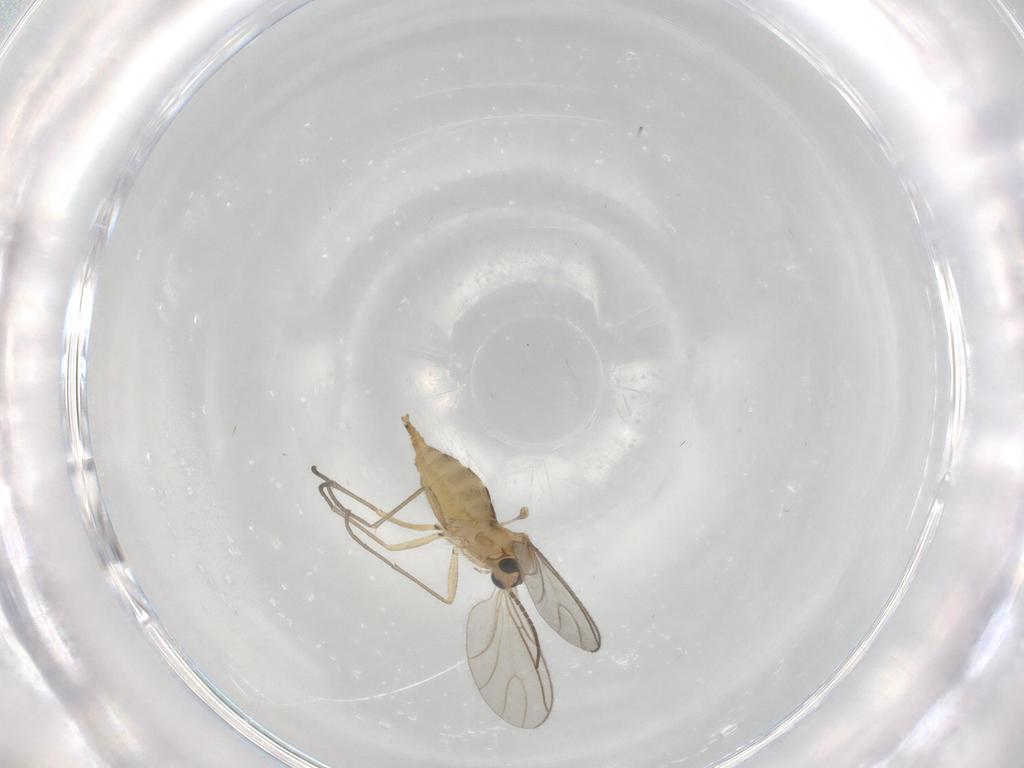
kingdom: Animalia
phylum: Arthropoda
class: Insecta
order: Diptera
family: Sciaridae
